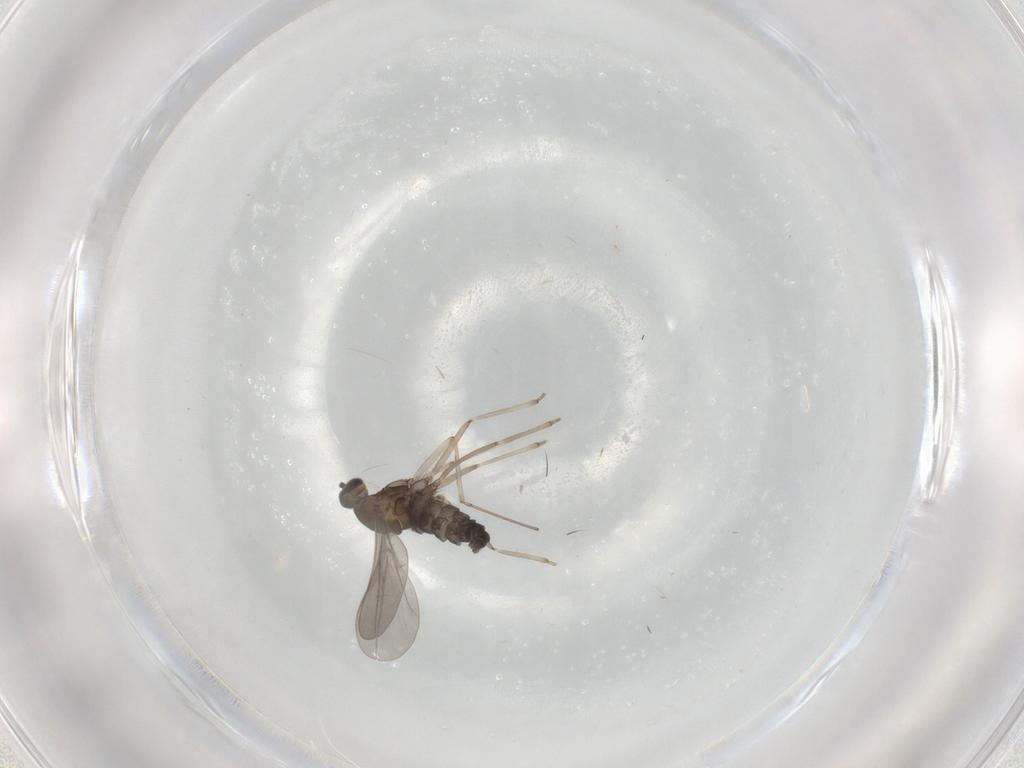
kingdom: Animalia
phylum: Arthropoda
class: Insecta
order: Diptera
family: Cecidomyiidae
